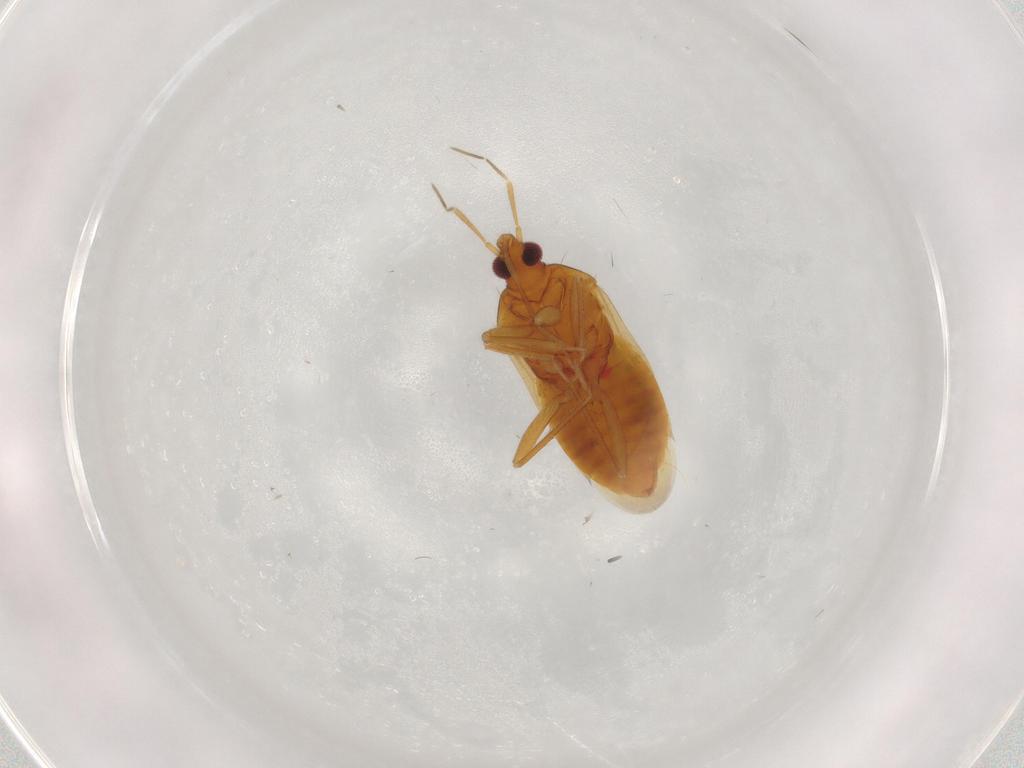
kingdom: Animalia
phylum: Arthropoda
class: Insecta
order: Hemiptera
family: Anthocoridae
